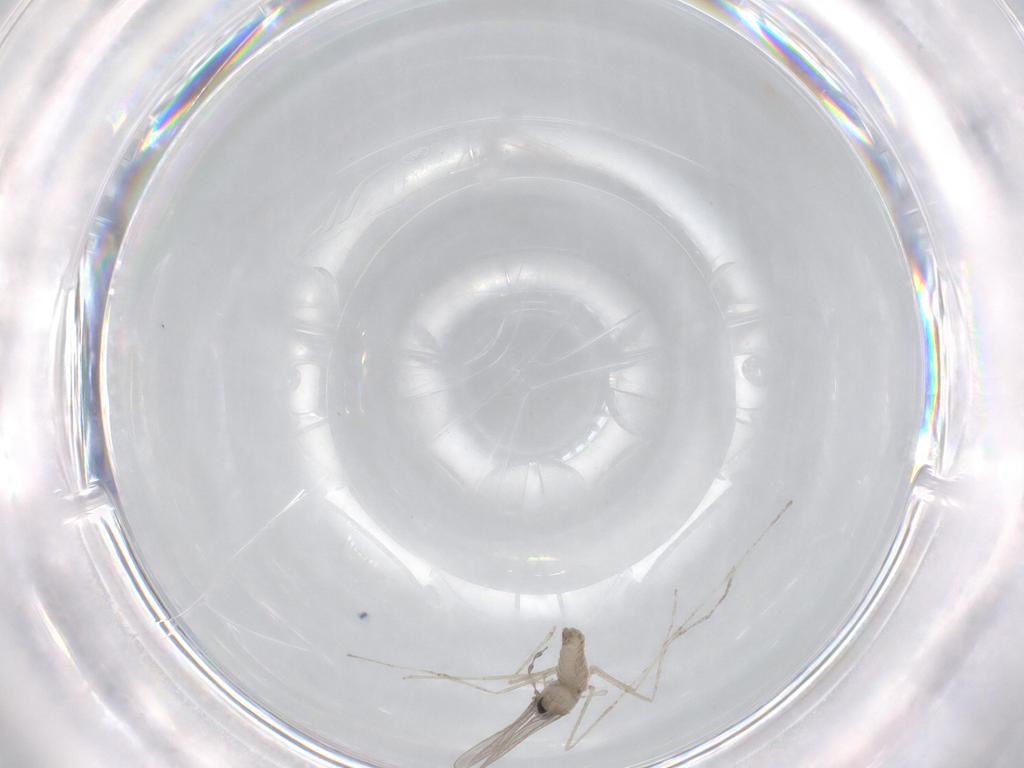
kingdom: Animalia
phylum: Arthropoda
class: Insecta
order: Diptera
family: Cecidomyiidae
